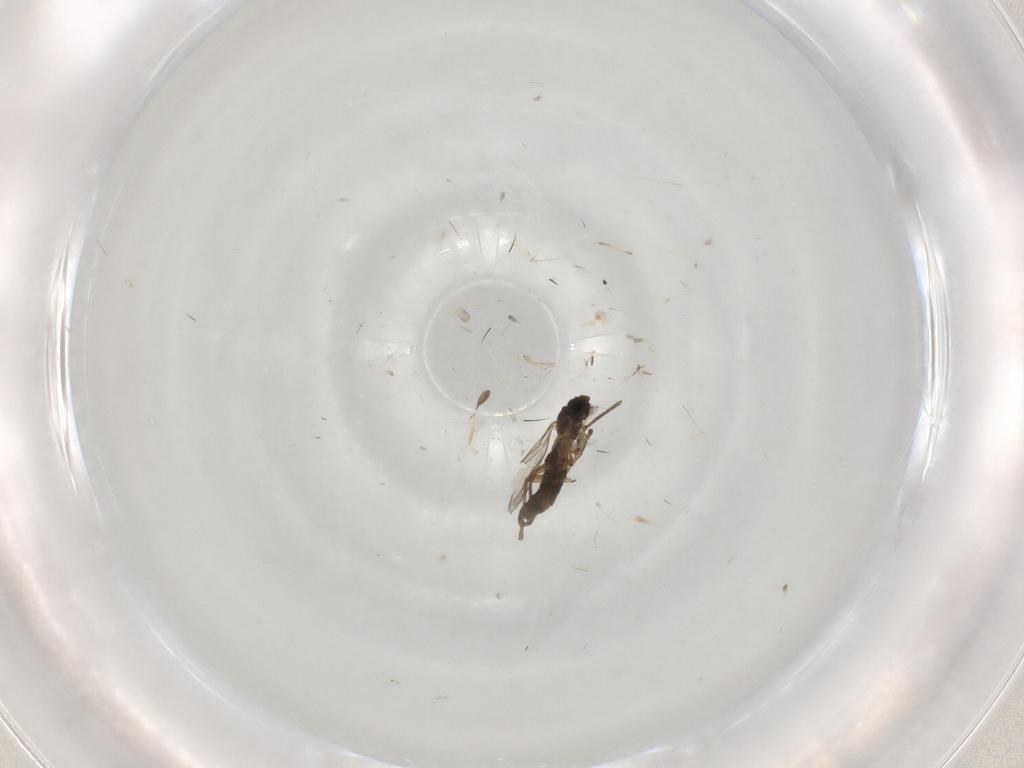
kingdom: Animalia
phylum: Arthropoda
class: Insecta
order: Diptera
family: Sciaridae
